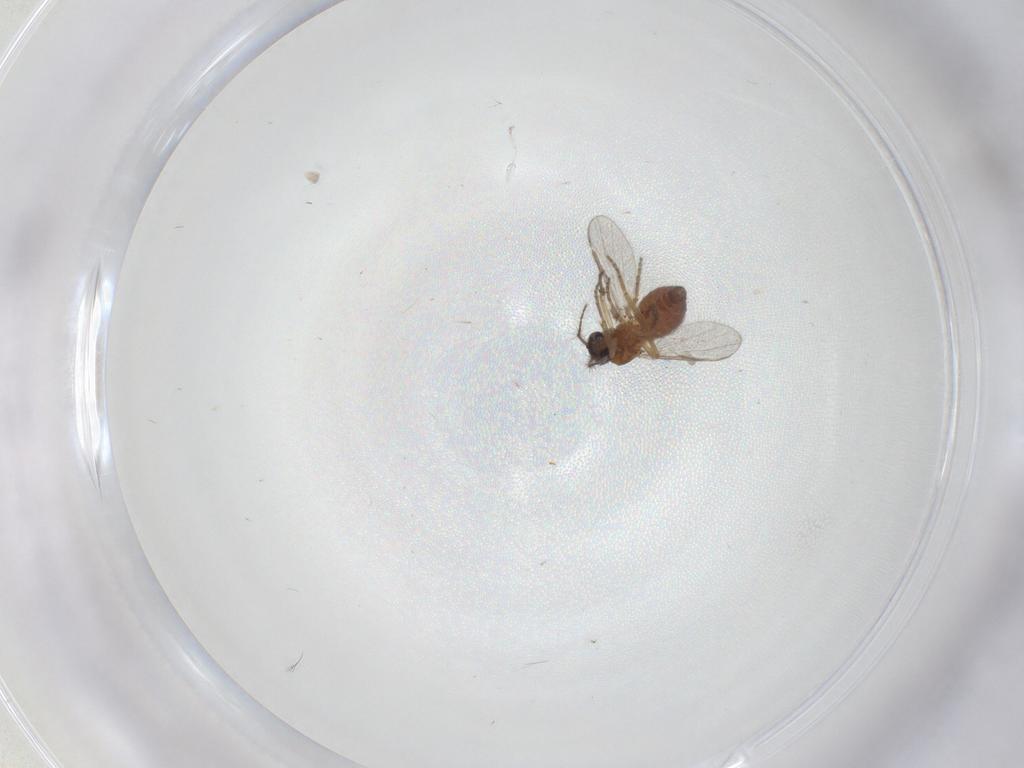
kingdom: Animalia
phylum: Arthropoda
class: Insecta
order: Diptera
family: Ceratopogonidae
